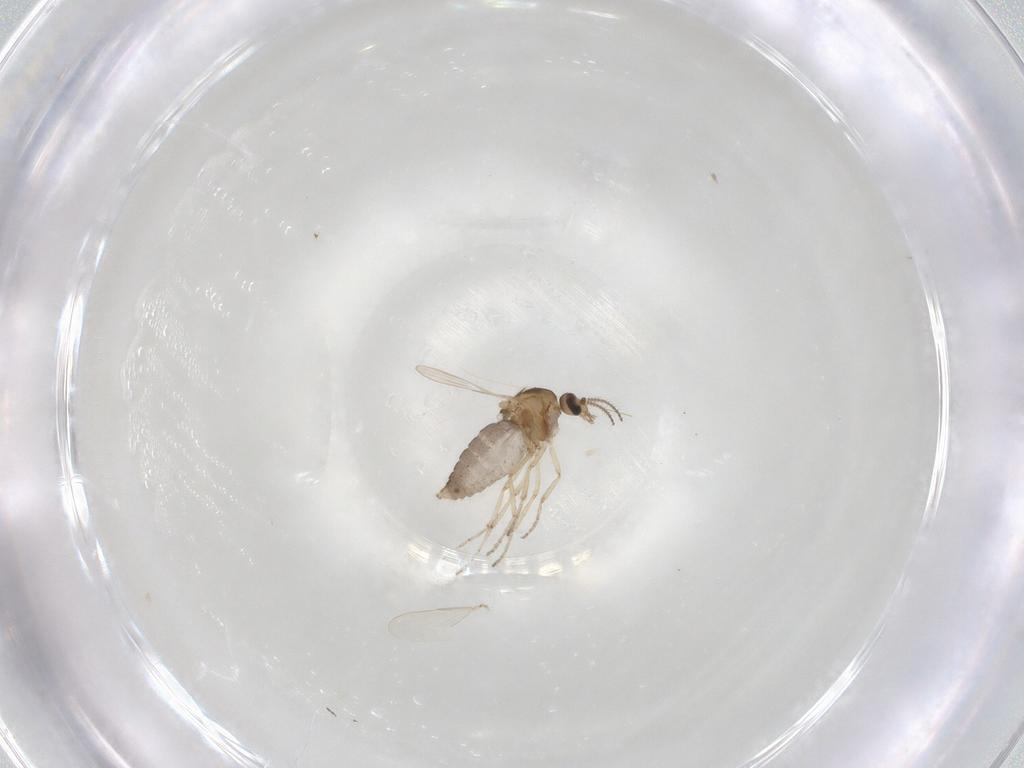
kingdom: Animalia
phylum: Arthropoda
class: Insecta
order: Diptera
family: Ceratopogonidae
